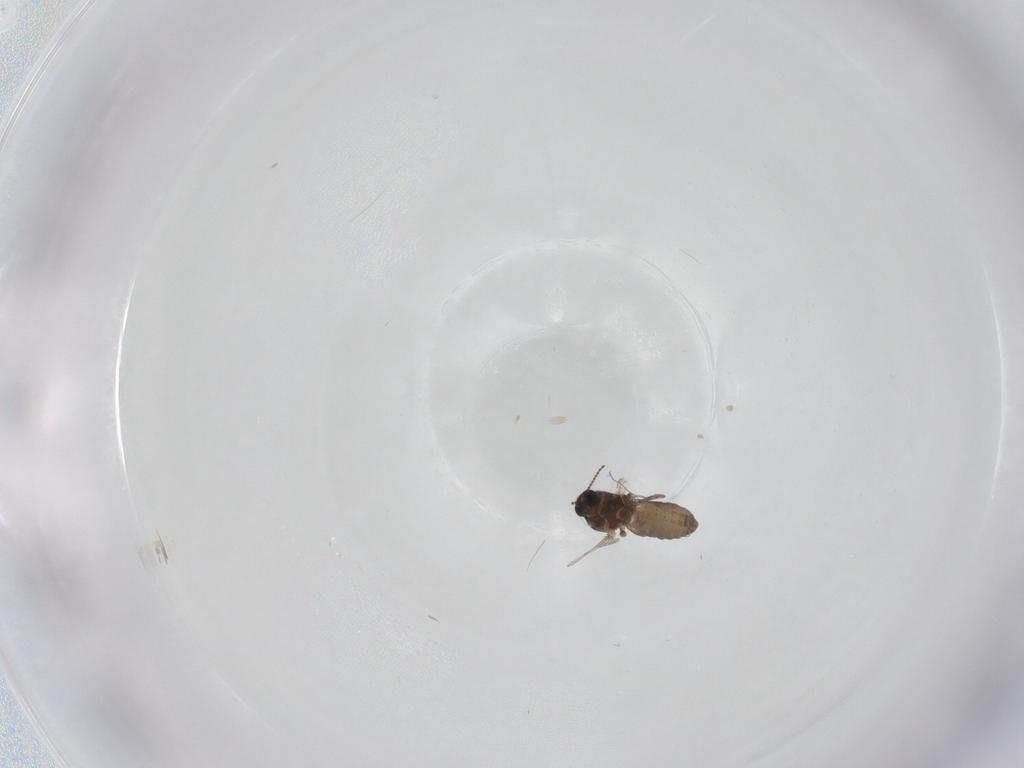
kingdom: Animalia
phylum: Arthropoda
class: Insecta
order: Diptera
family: Ceratopogonidae
